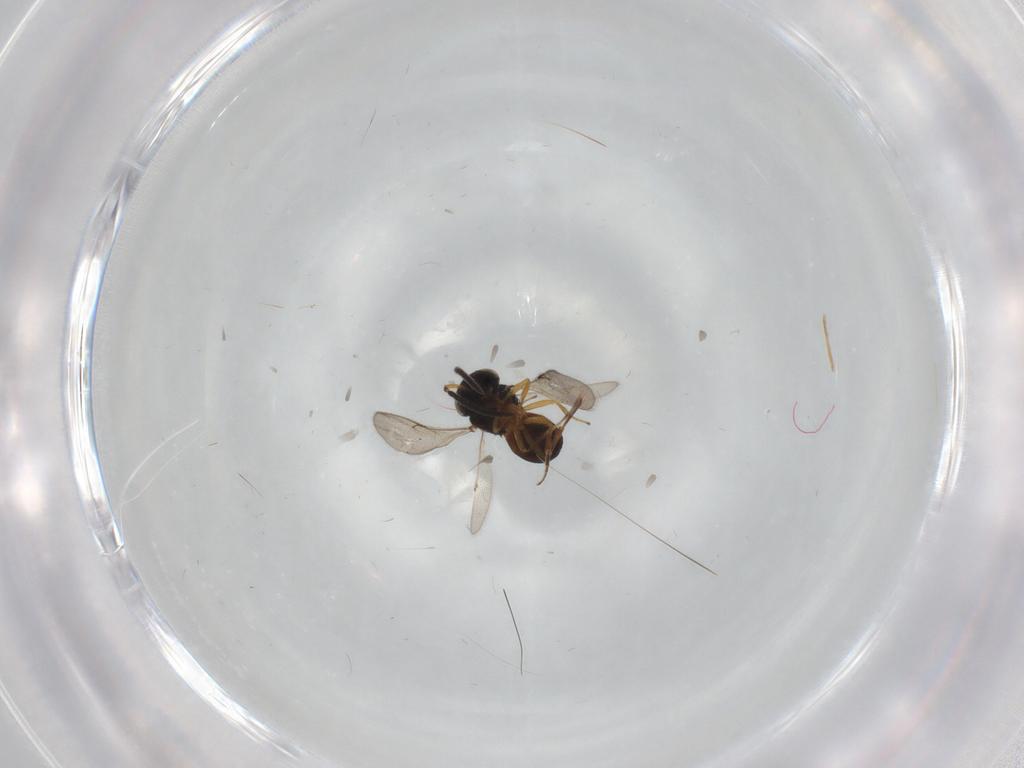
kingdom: Animalia
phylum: Arthropoda
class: Insecta
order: Hymenoptera
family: Scelionidae
